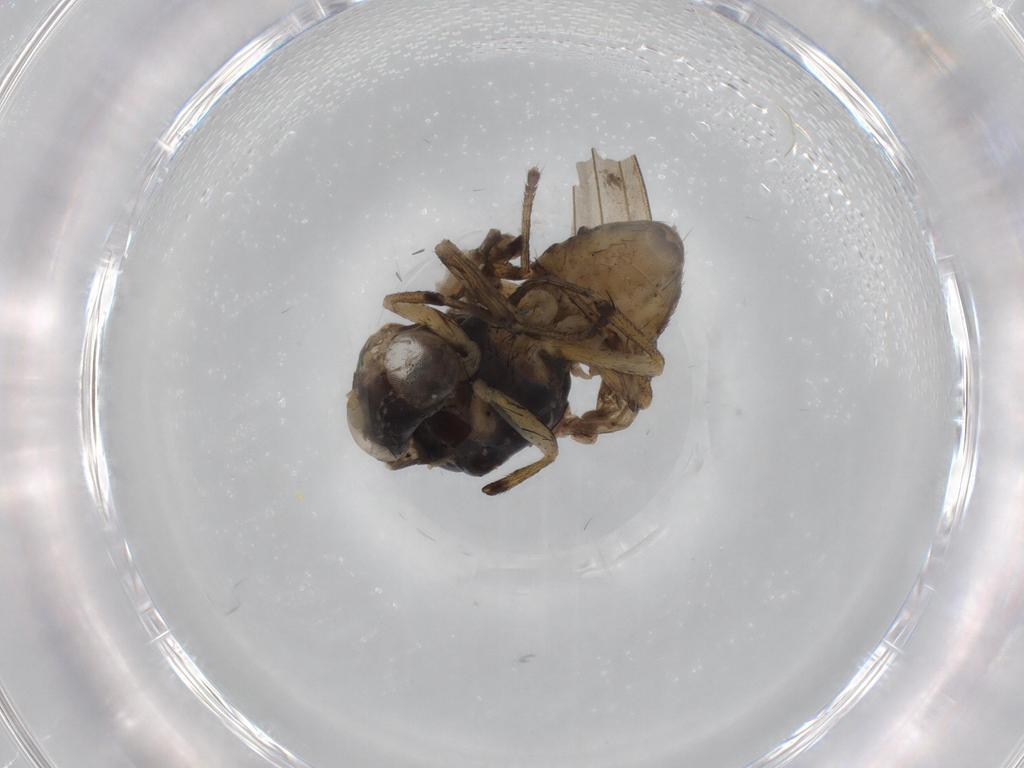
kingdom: Animalia
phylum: Arthropoda
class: Insecta
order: Diptera
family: Cecidomyiidae
